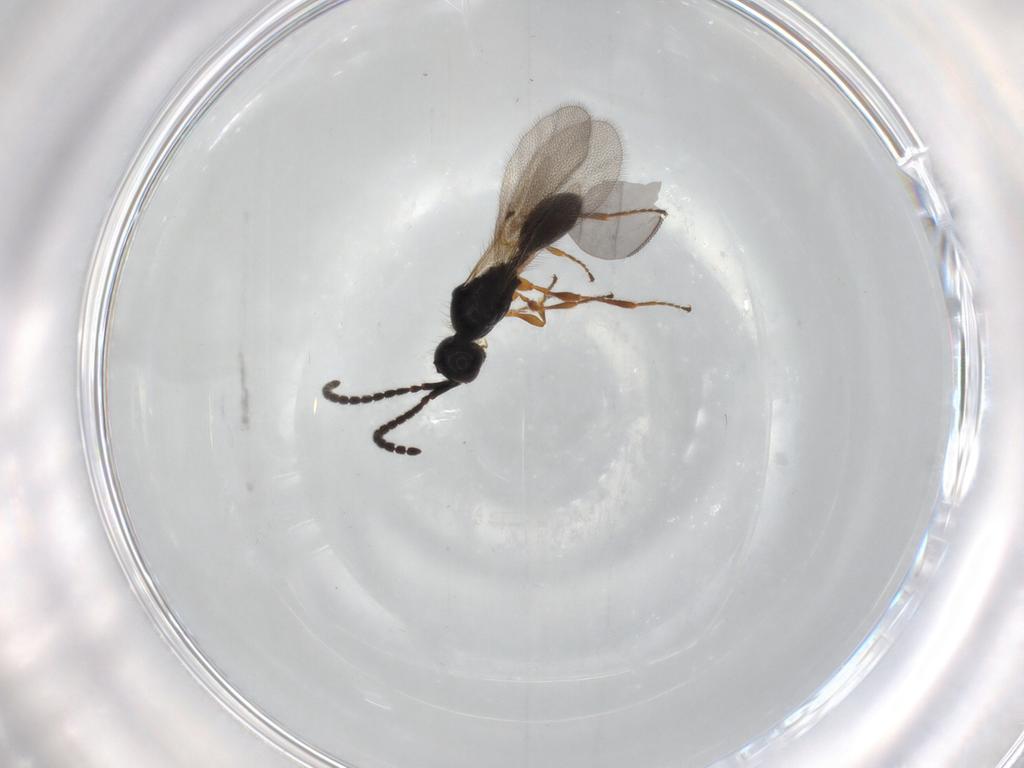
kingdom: Animalia
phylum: Arthropoda
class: Insecta
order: Hymenoptera
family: Diapriidae
